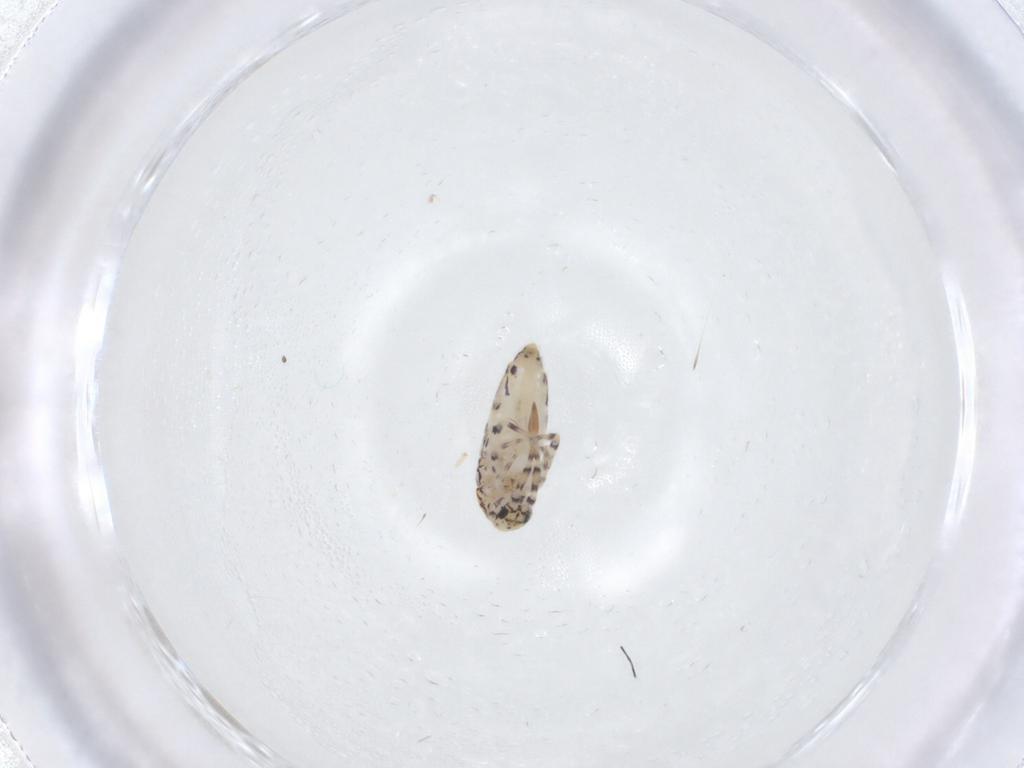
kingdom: Animalia
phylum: Arthropoda
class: Collembola
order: Entomobryomorpha
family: Entomobryidae
